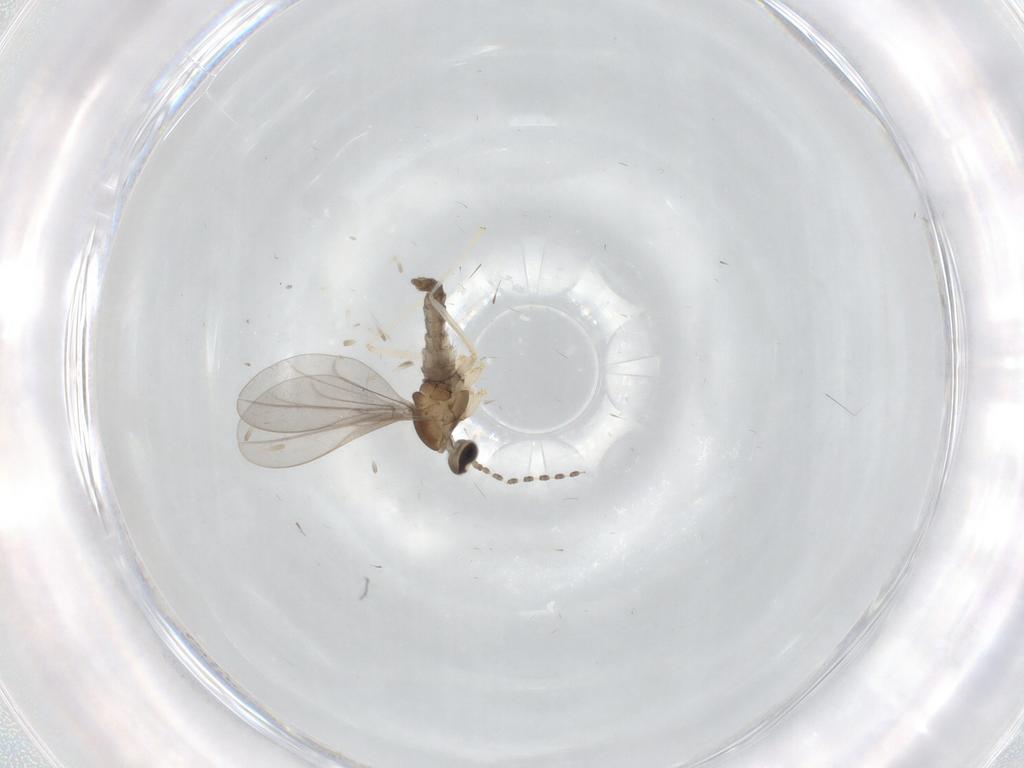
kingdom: Animalia
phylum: Arthropoda
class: Insecta
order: Diptera
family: Cecidomyiidae
